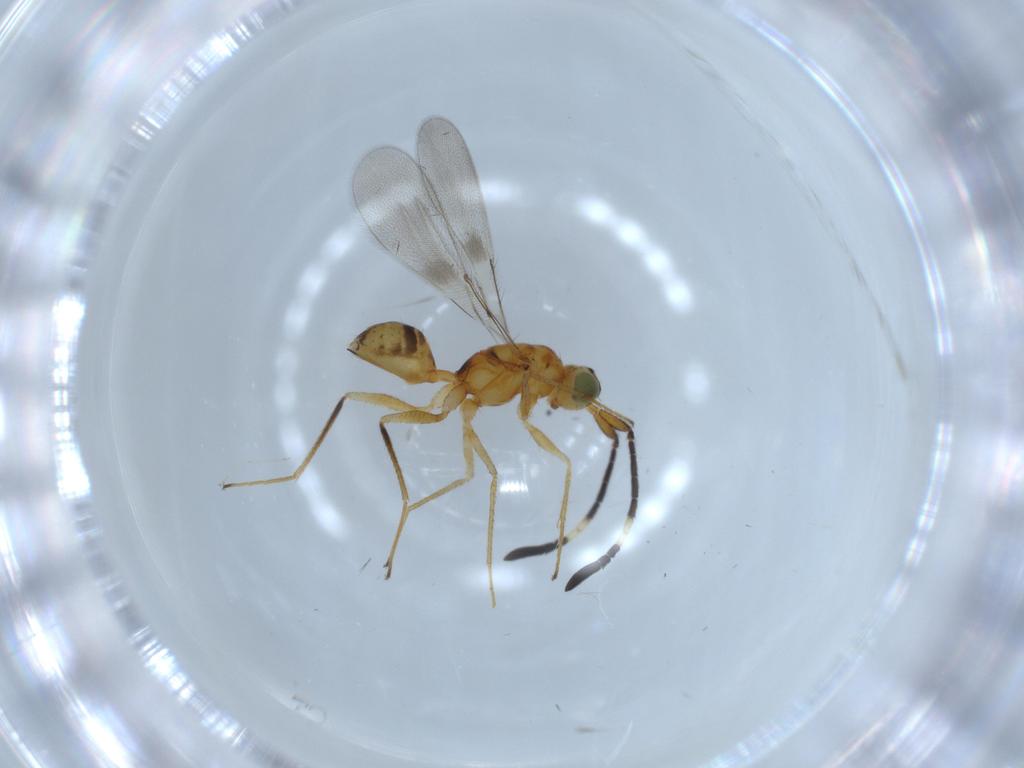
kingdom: Animalia
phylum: Arthropoda
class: Insecta
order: Hymenoptera
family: Mymaridae
